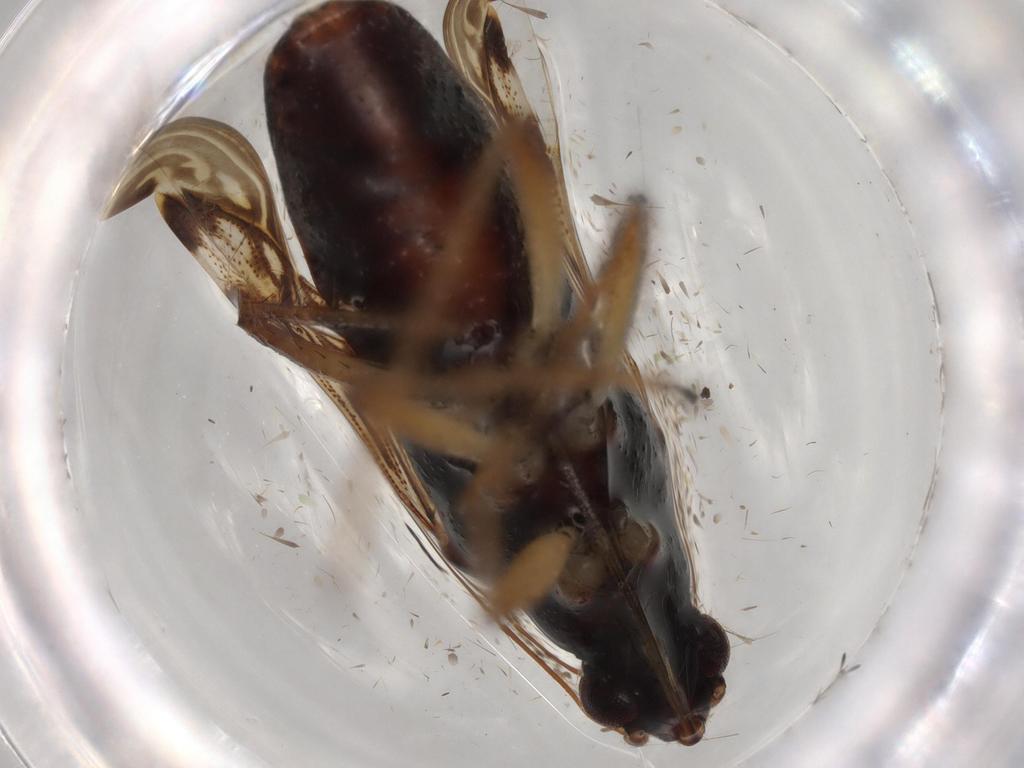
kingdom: Animalia
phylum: Arthropoda
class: Insecta
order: Hemiptera
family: Rhyparochromidae
